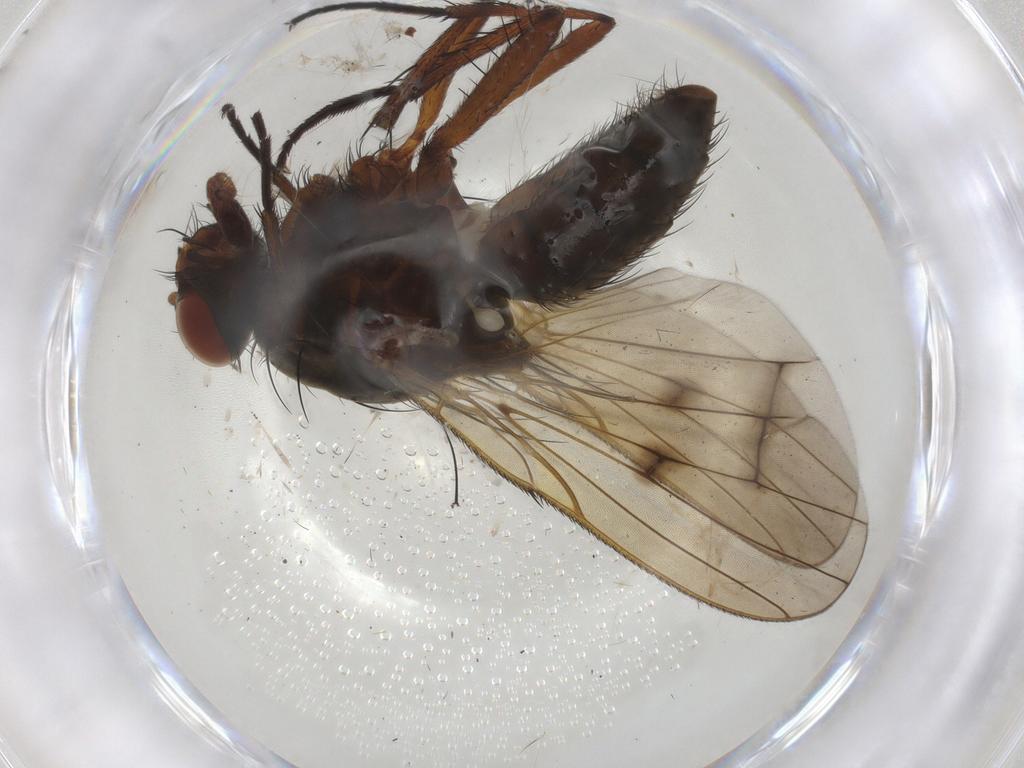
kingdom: Animalia
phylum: Arthropoda
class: Insecta
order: Diptera
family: Anthomyiidae
